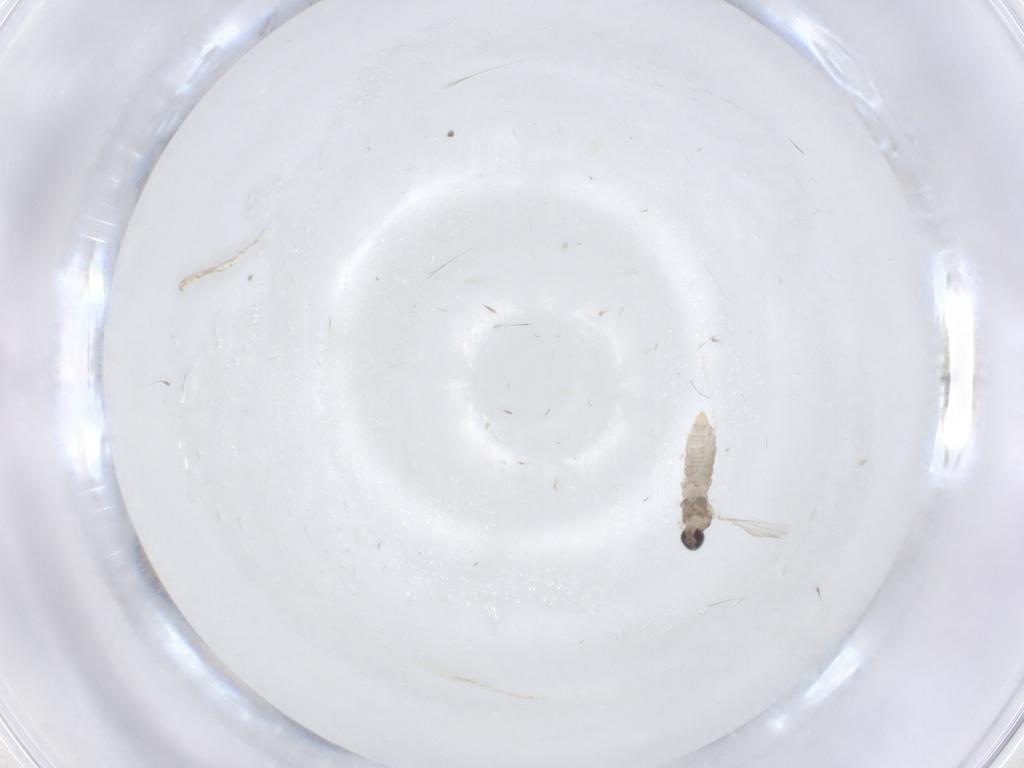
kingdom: Animalia
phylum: Arthropoda
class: Insecta
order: Diptera
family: Cecidomyiidae
